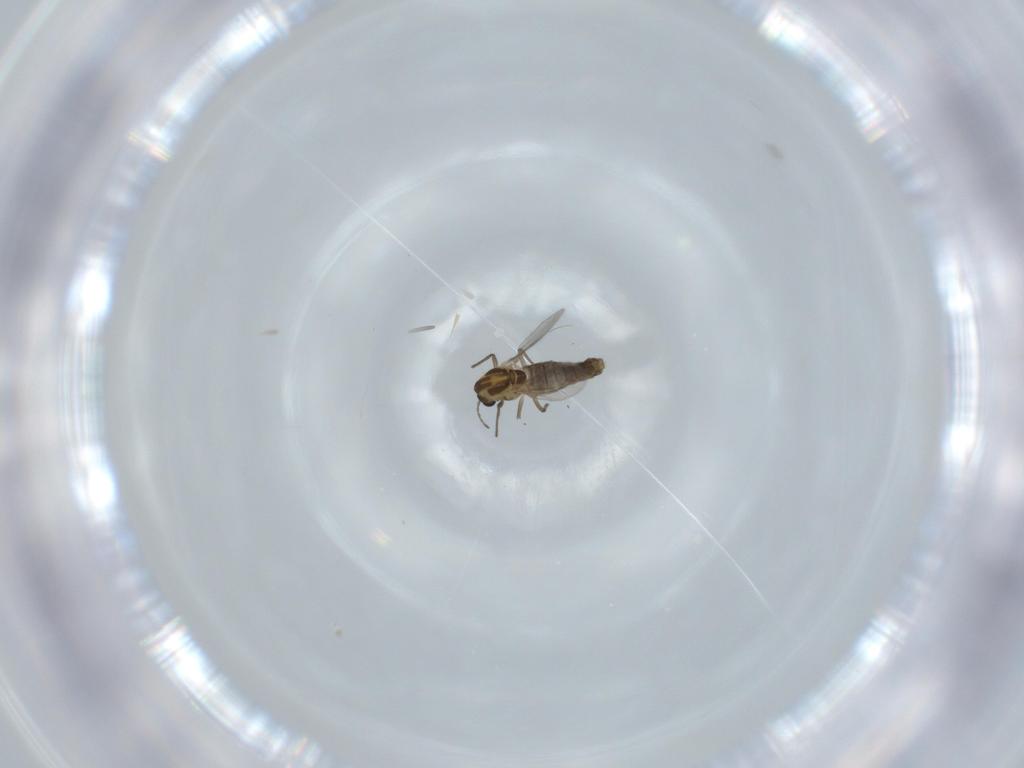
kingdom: Animalia
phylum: Arthropoda
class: Insecta
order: Diptera
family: Chironomidae
